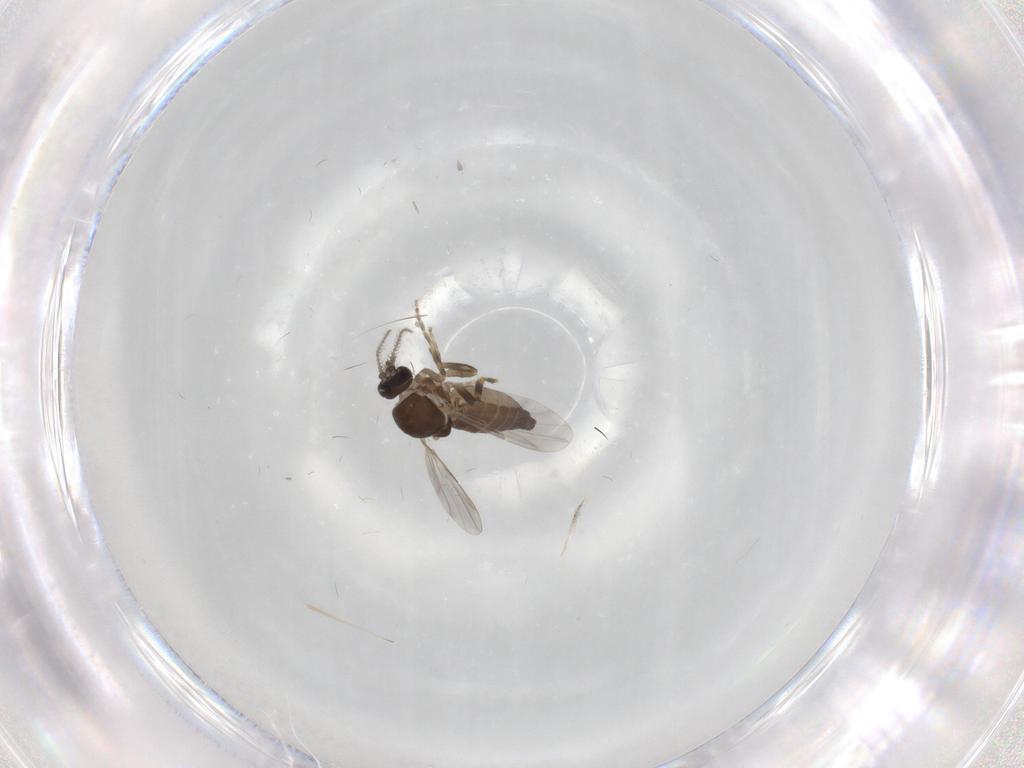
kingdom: Animalia
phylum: Arthropoda
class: Insecta
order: Diptera
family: Ceratopogonidae
